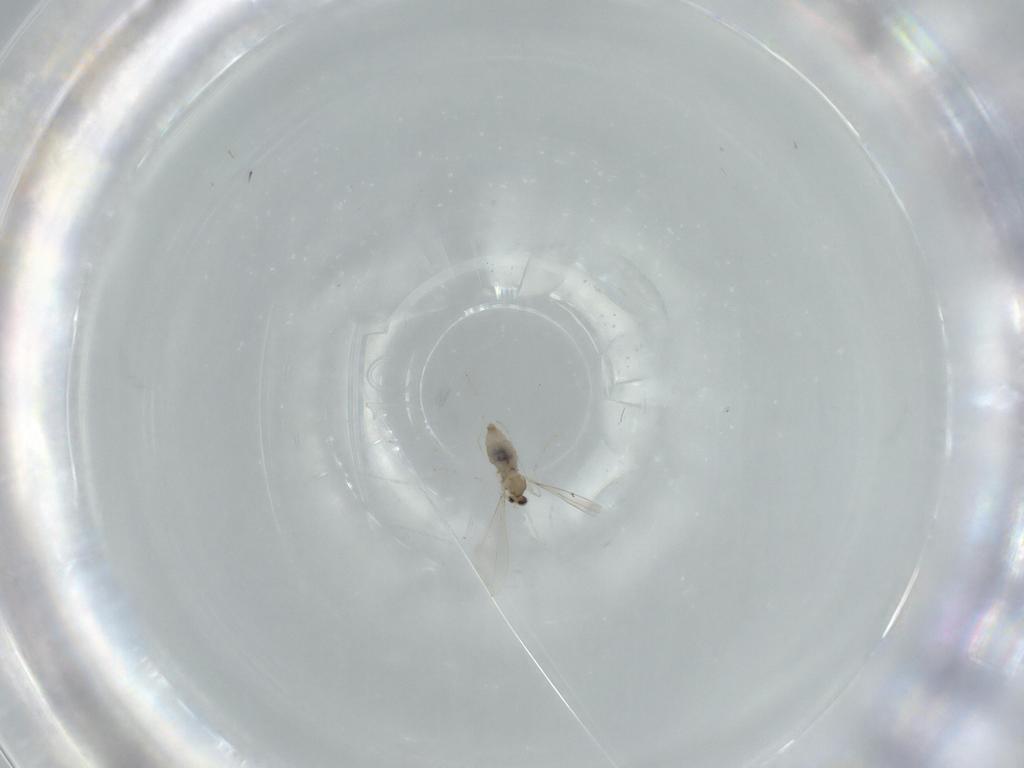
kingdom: Animalia
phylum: Arthropoda
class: Insecta
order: Diptera
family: Cecidomyiidae
